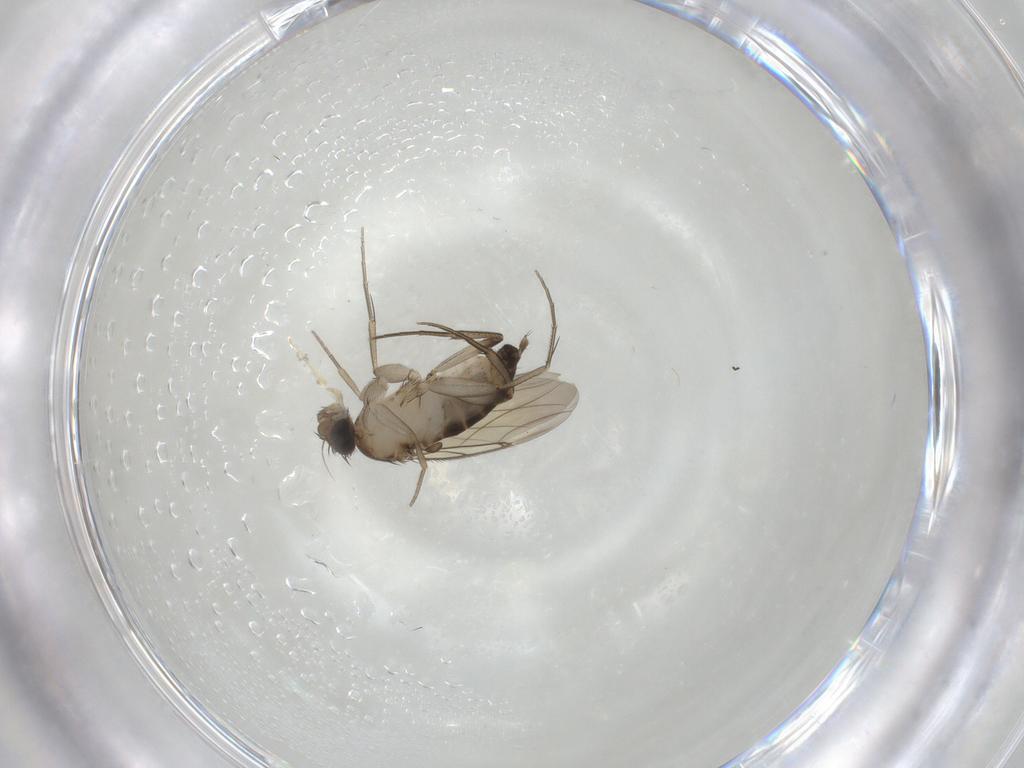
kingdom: Animalia
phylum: Arthropoda
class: Insecta
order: Diptera
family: Phoridae
